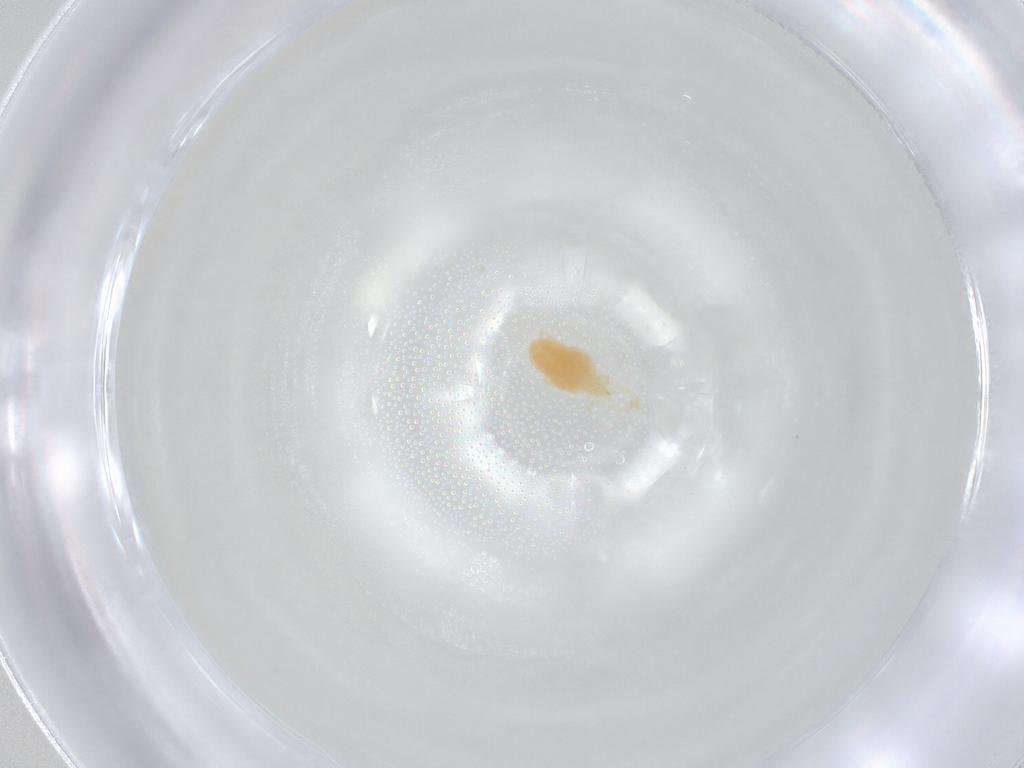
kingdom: Animalia
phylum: Arthropoda
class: Arachnida
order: Trombidiformes
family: Erythraeidae
